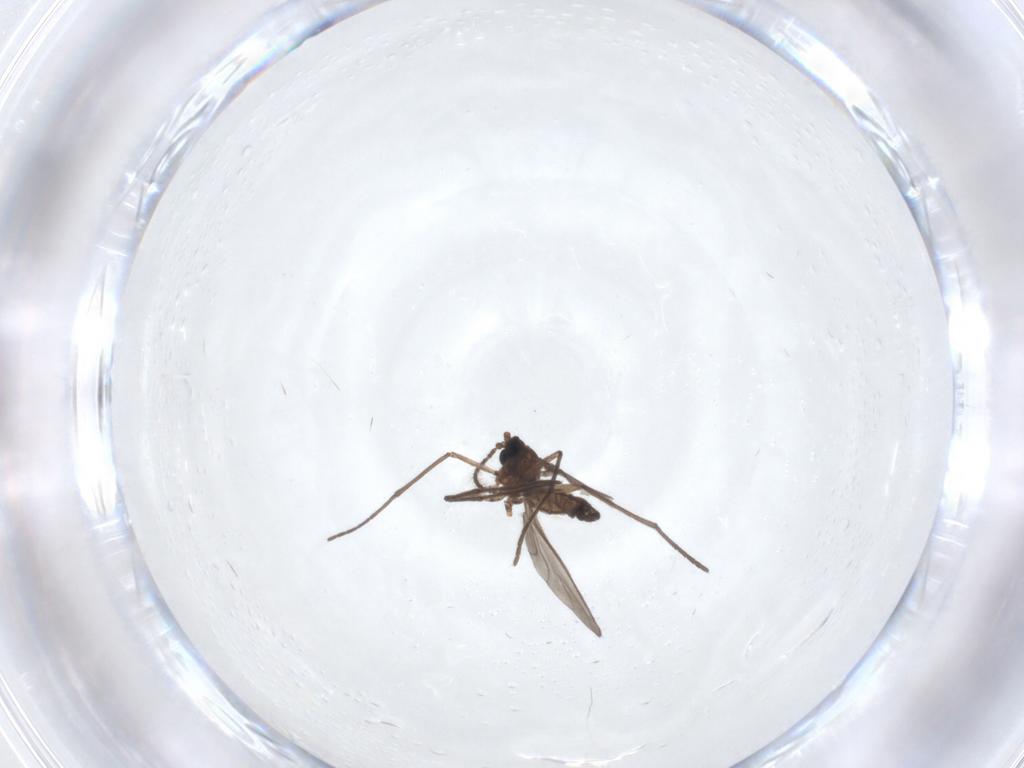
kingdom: Animalia
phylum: Arthropoda
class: Insecta
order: Diptera
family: Sciaridae
